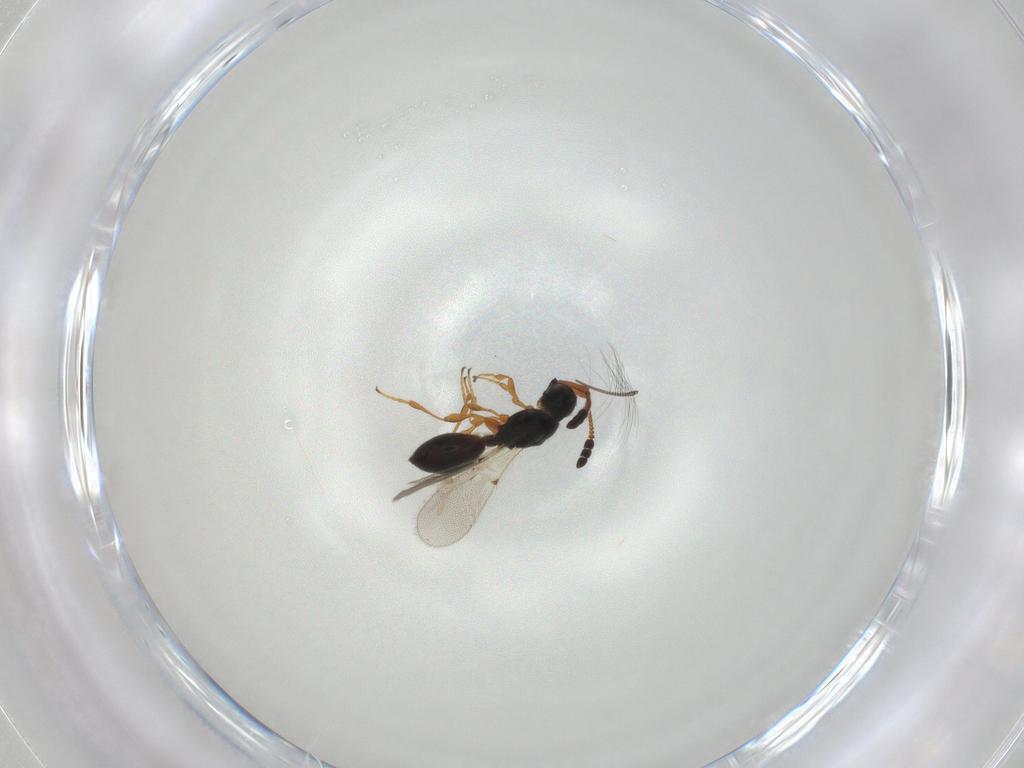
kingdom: Animalia
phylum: Arthropoda
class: Insecta
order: Hymenoptera
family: Diapriidae
